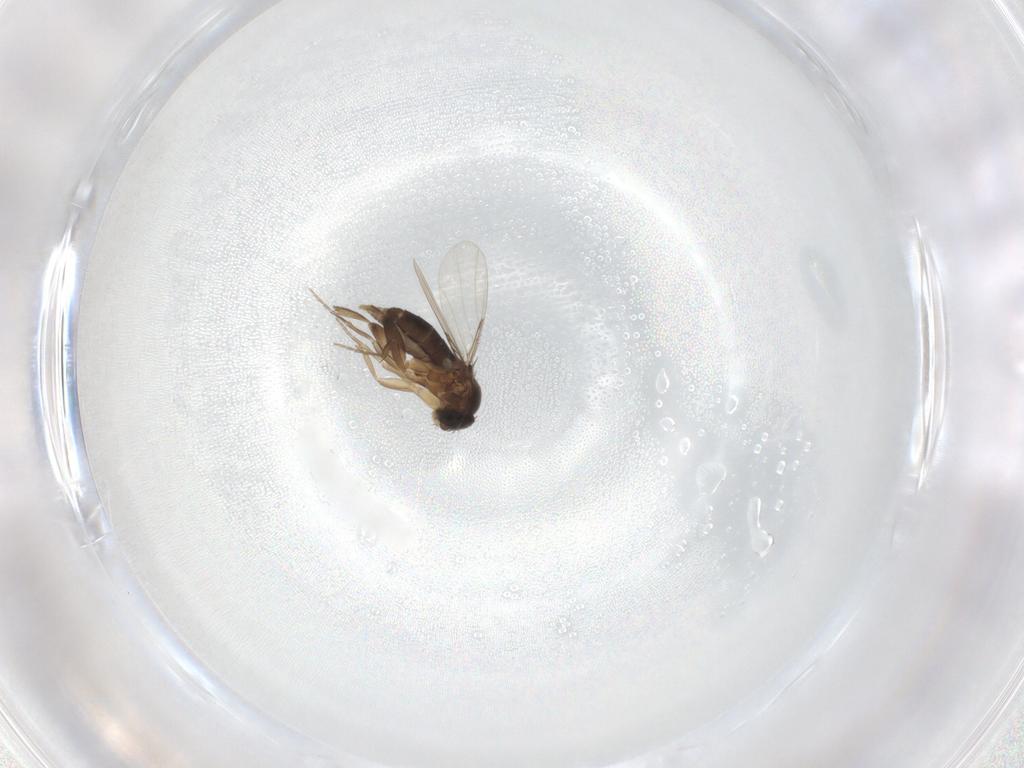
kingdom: Animalia
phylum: Arthropoda
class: Insecta
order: Diptera
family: Phoridae
